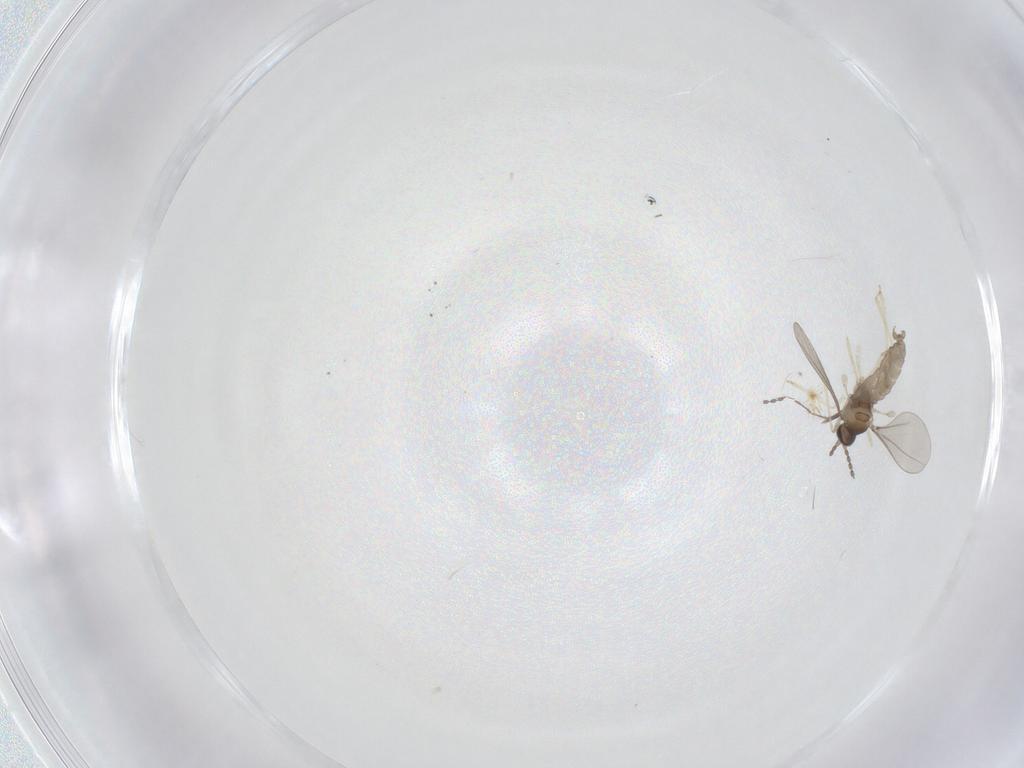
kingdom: Animalia
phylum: Arthropoda
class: Insecta
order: Diptera
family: Ceratopogonidae
